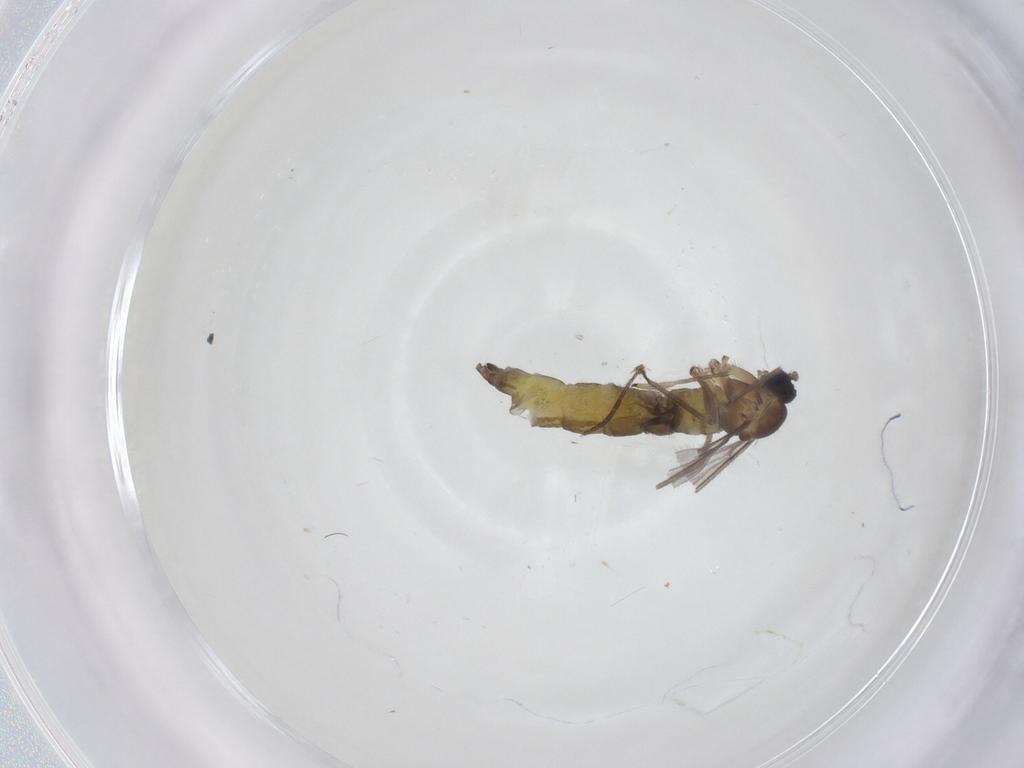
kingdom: Animalia
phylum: Arthropoda
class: Insecta
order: Diptera
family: Sciaridae
